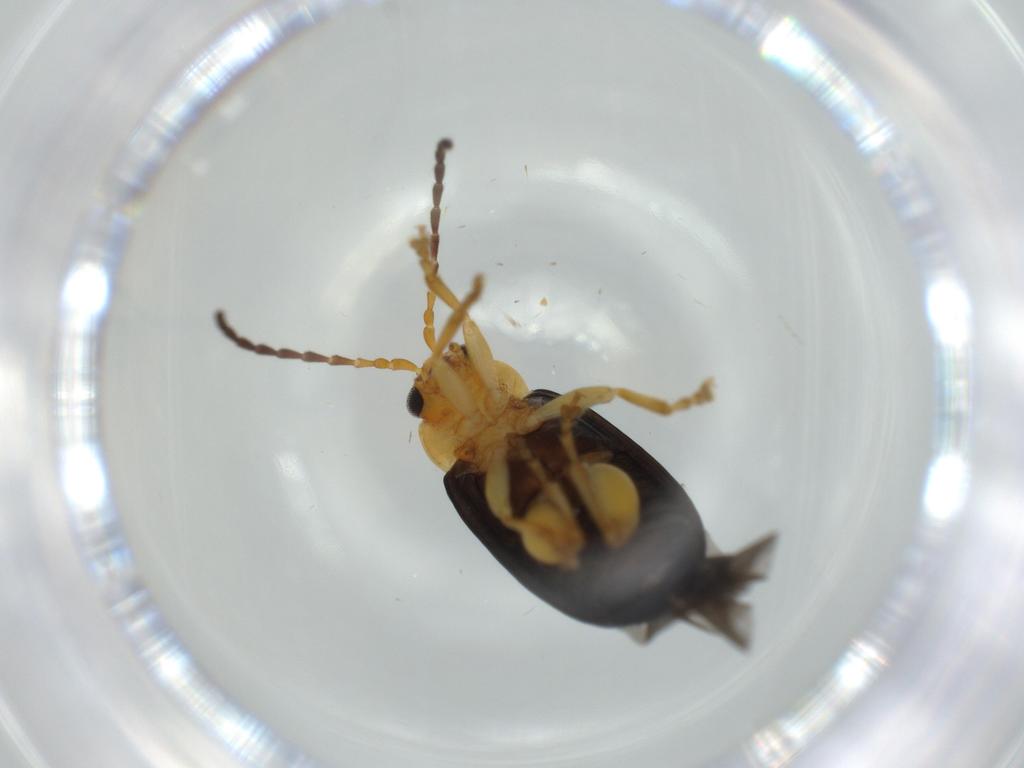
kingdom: Animalia
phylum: Arthropoda
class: Insecta
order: Coleoptera
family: Chrysomelidae
